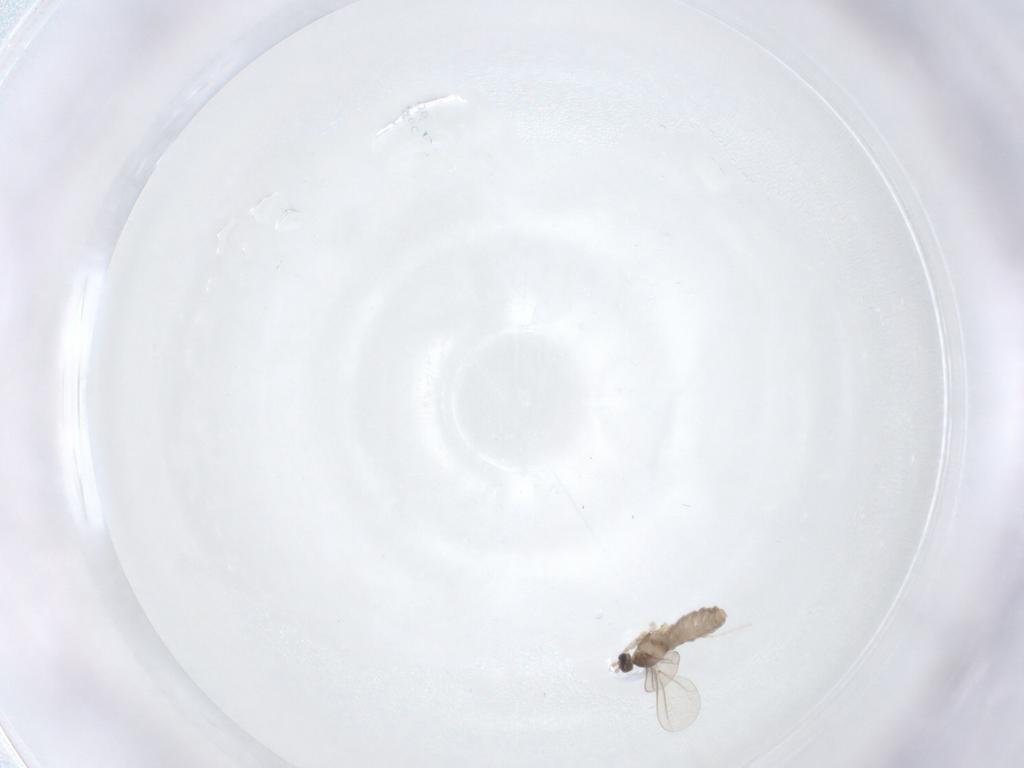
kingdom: Animalia
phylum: Arthropoda
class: Insecta
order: Diptera
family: Cecidomyiidae
